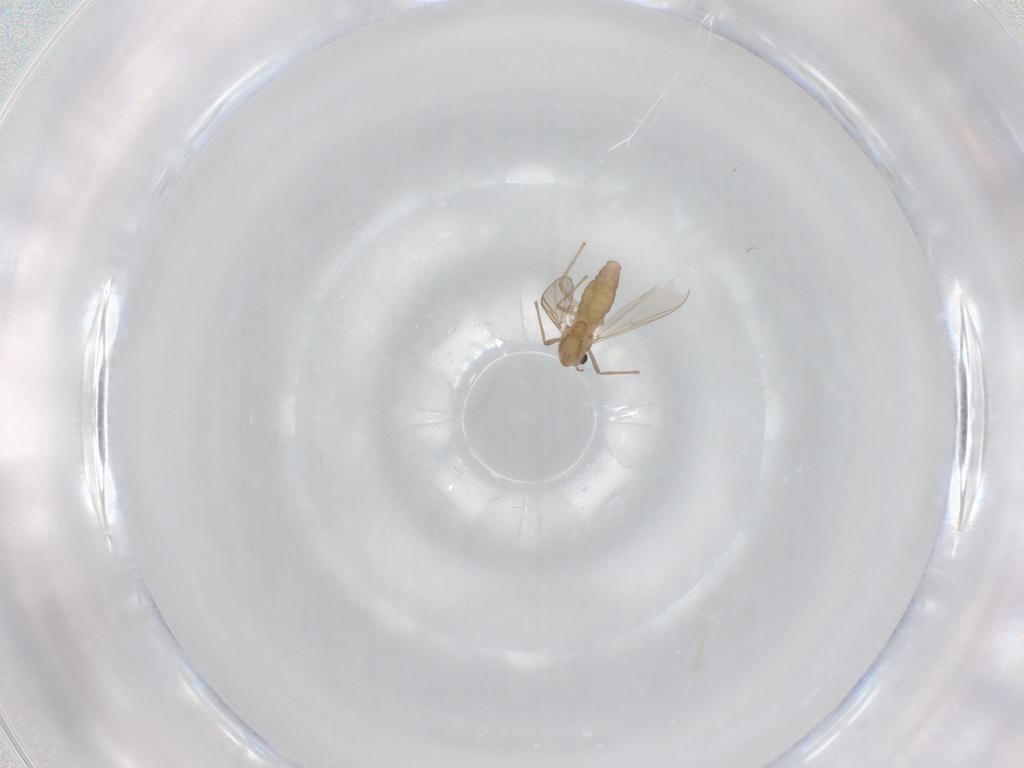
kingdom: Animalia
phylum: Arthropoda
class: Insecta
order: Diptera
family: Chironomidae
